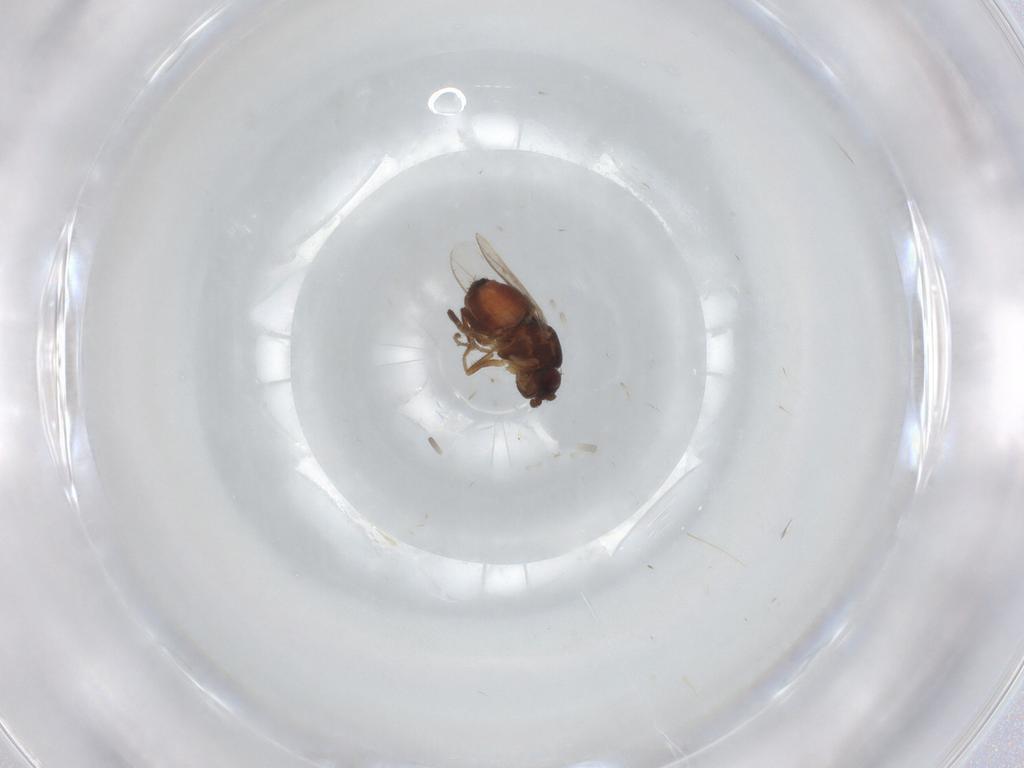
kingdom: Animalia
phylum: Arthropoda
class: Insecta
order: Diptera
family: Sphaeroceridae
